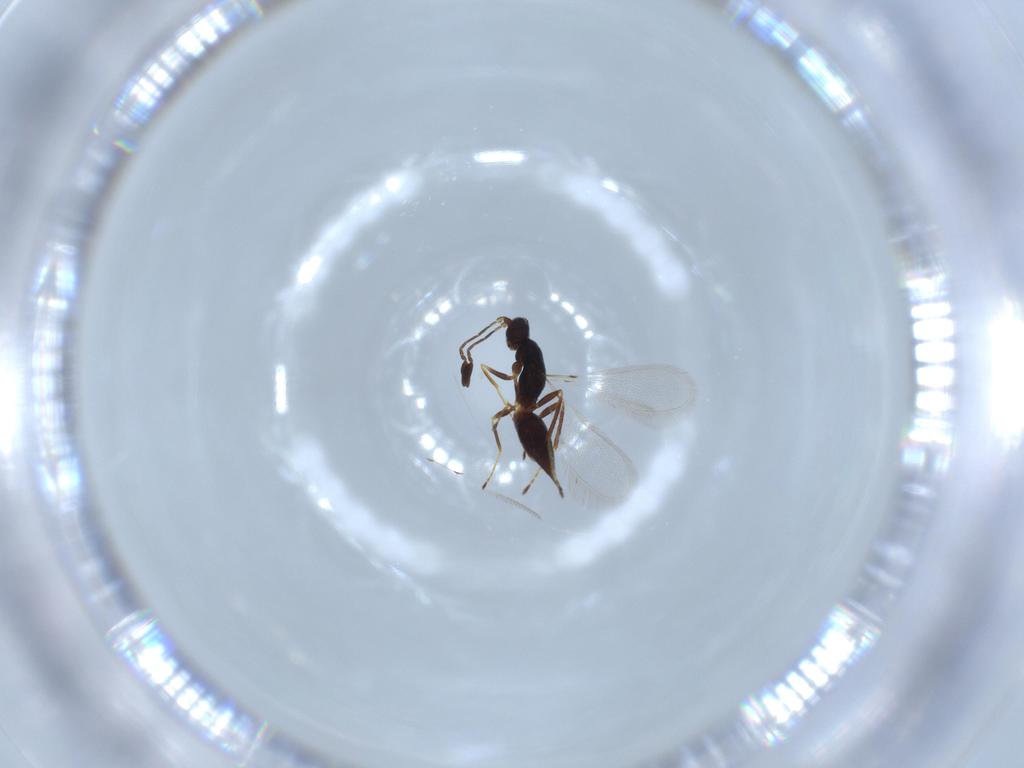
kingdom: Animalia
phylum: Arthropoda
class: Insecta
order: Hymenoptera
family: Mymaridae
